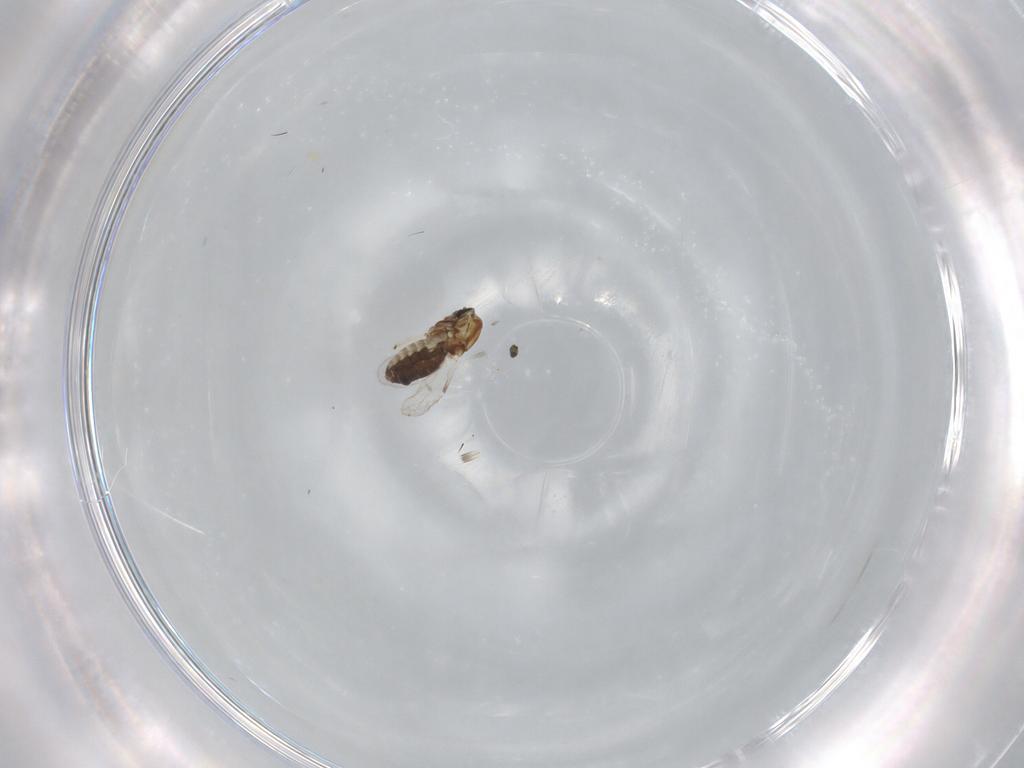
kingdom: Animalia
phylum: Arthropoda
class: Insecta
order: Diptera
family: Ceratopogonidae
